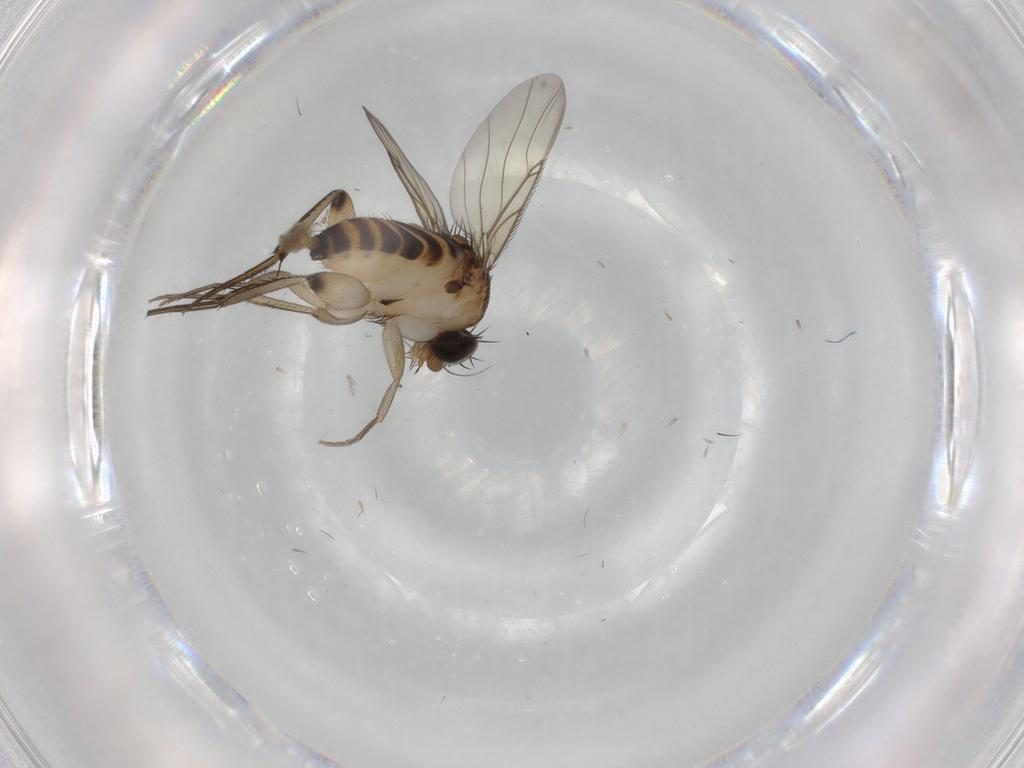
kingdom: Animalia
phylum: Arthropoda
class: Insecta
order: Diptera
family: Phoridae
